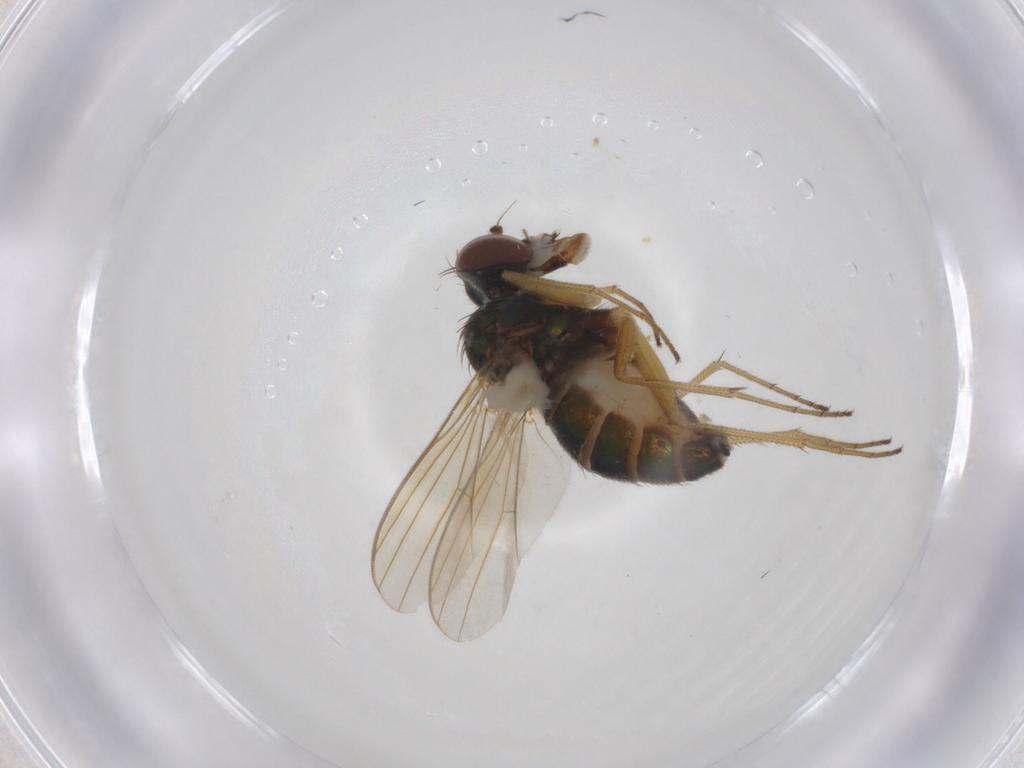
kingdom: Animalia
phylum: Arthropoda
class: Insecta
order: Diptera
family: Dolichopodidae
